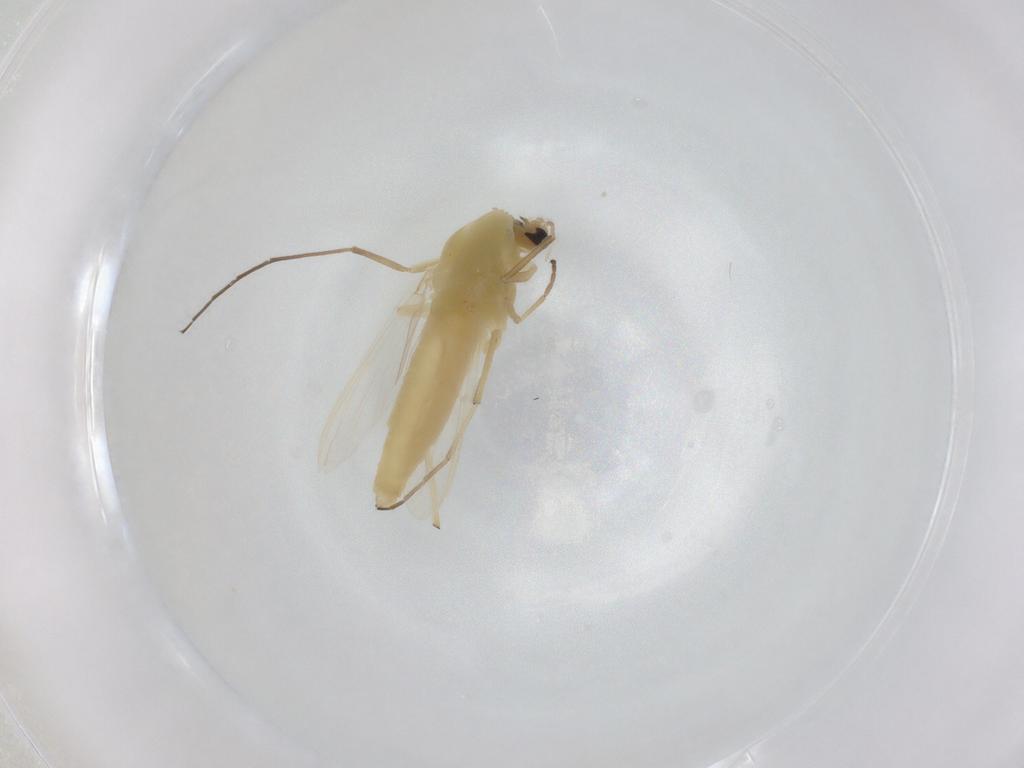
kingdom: Animalia
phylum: Arthropoda
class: Insecta
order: Diptera
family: Chironomidae
